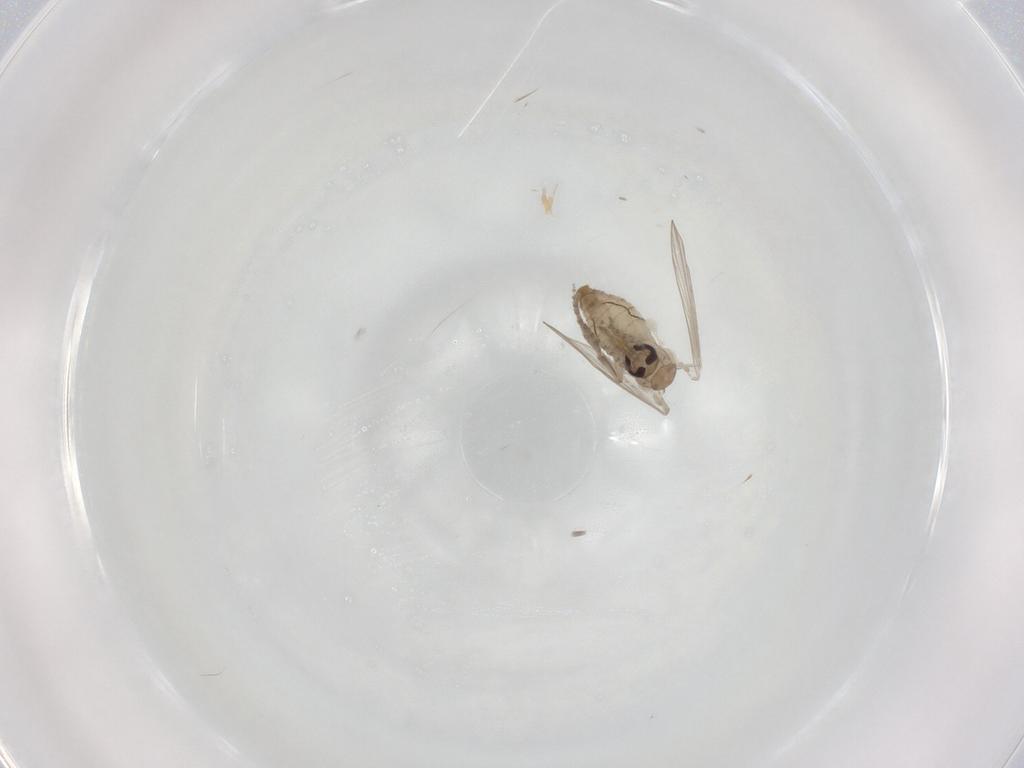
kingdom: Animalia
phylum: Arthropoda
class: Insecta
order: Diptera
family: Psychodidae
